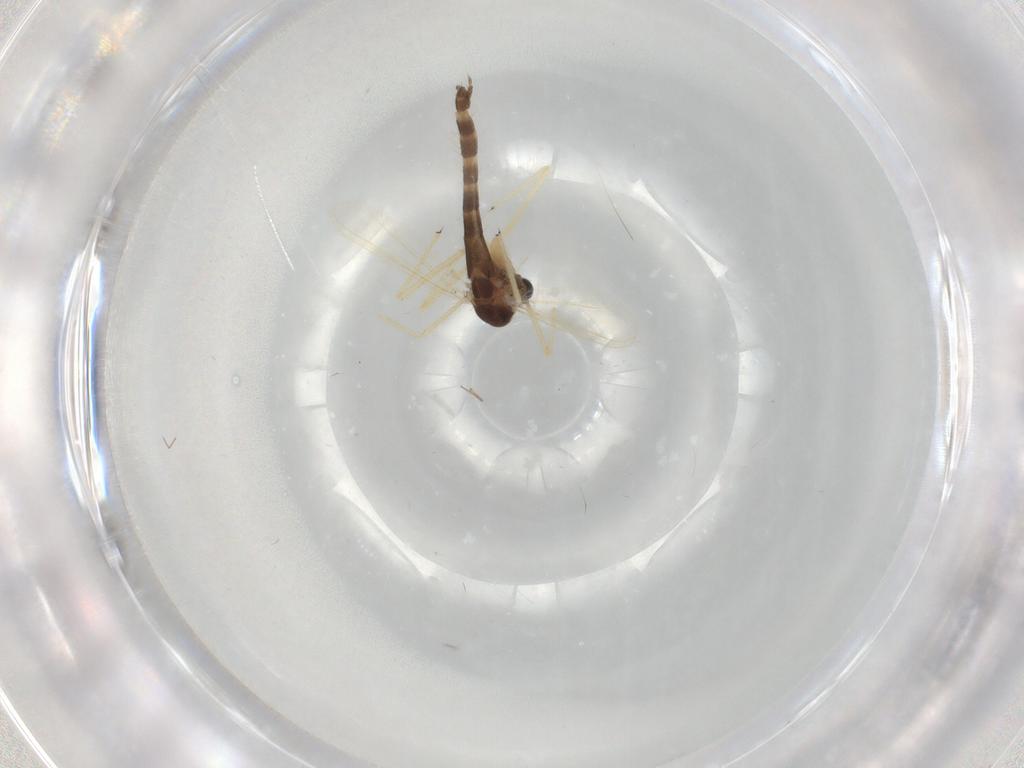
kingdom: Animalia
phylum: Arthropoda
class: Insecta
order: Diptera
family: Chironomidae
